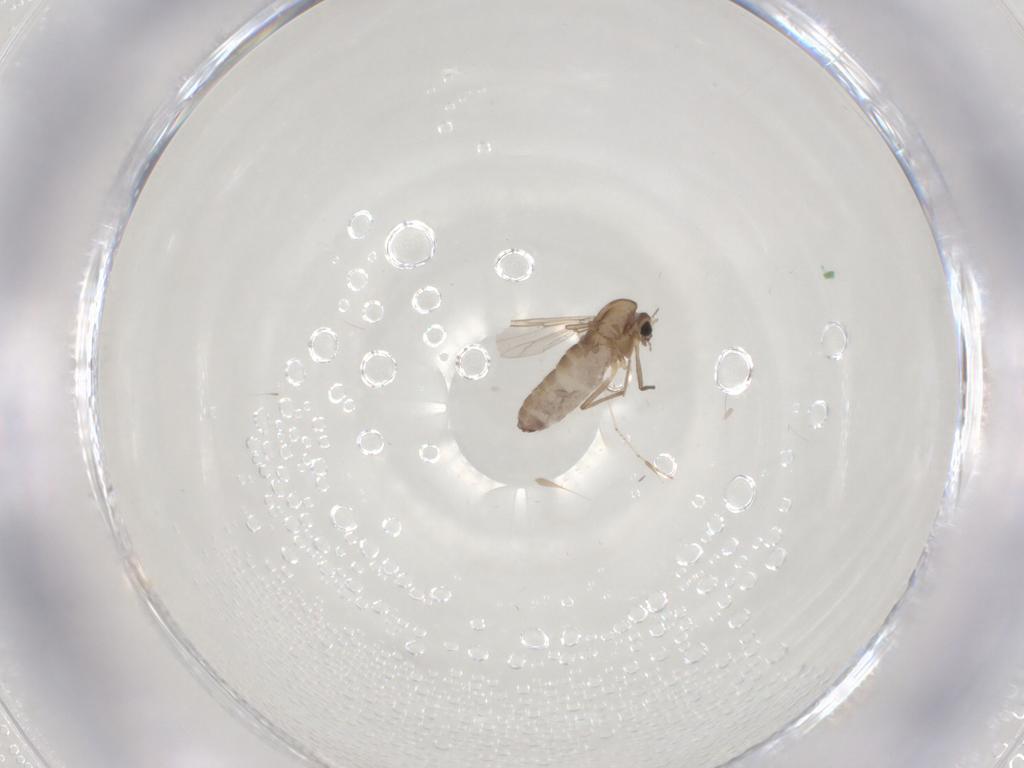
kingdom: Animalia
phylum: Arthropoda
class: Insecta
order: Diptera
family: Chironomidae
